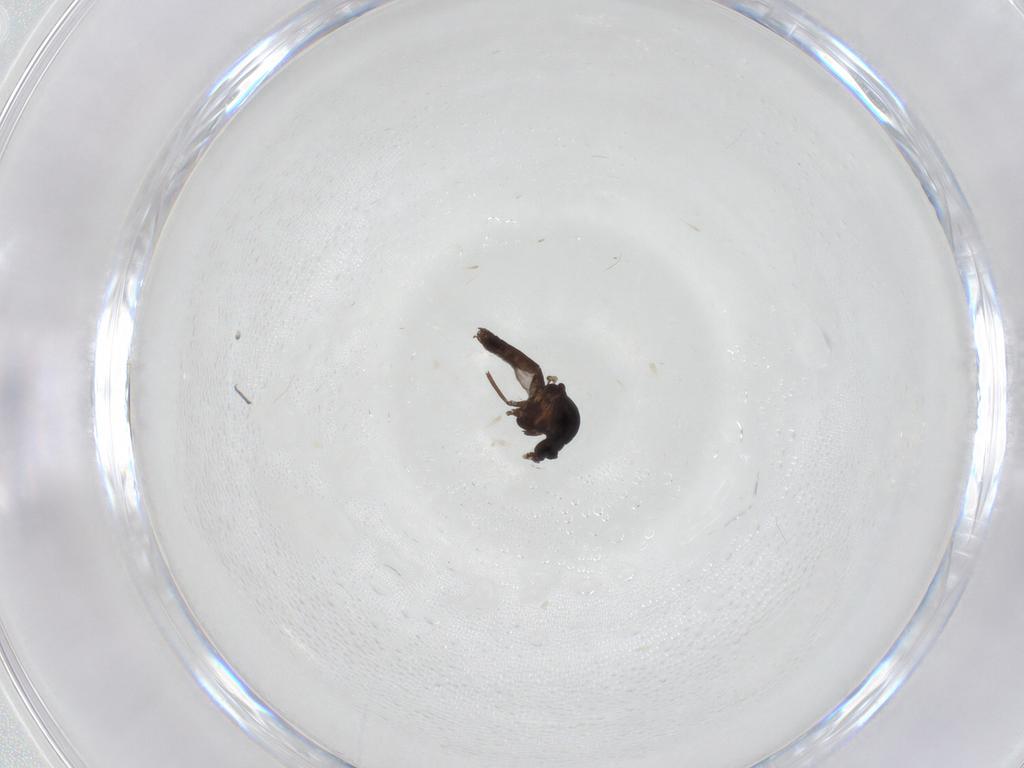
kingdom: Animalia
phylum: Arthropoda
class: Insecta
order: Diptera
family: Ceratopogonidae
